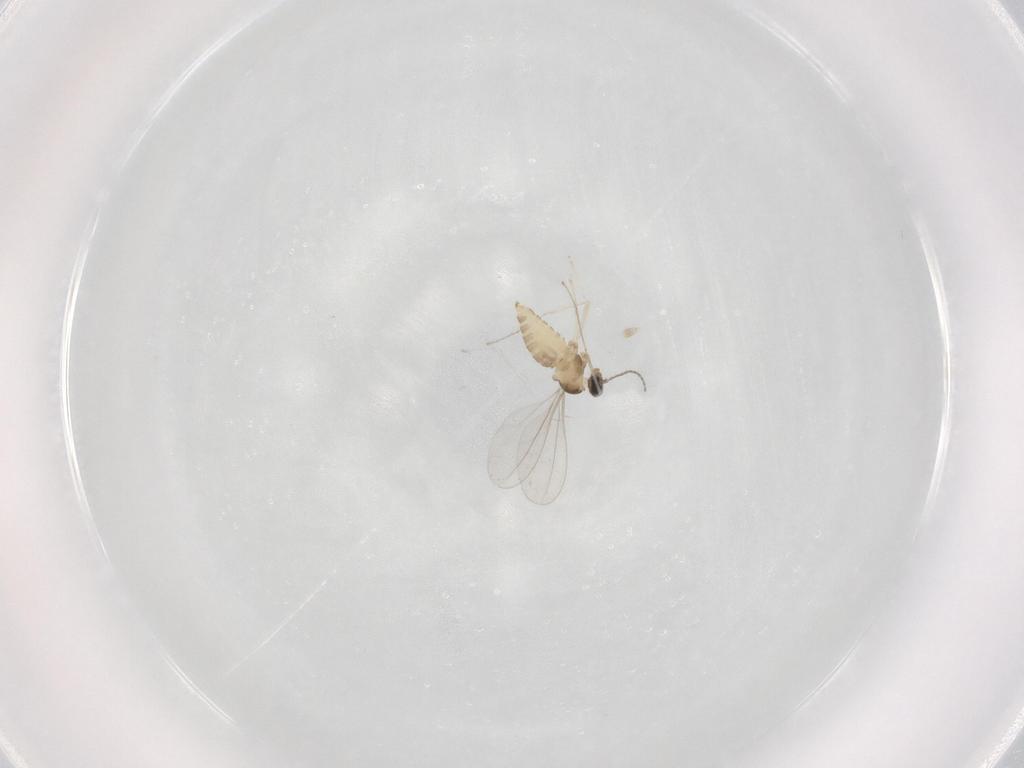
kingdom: Animalia
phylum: Arthropoda
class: Insecta
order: Diptera
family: Cecidomyiidae
